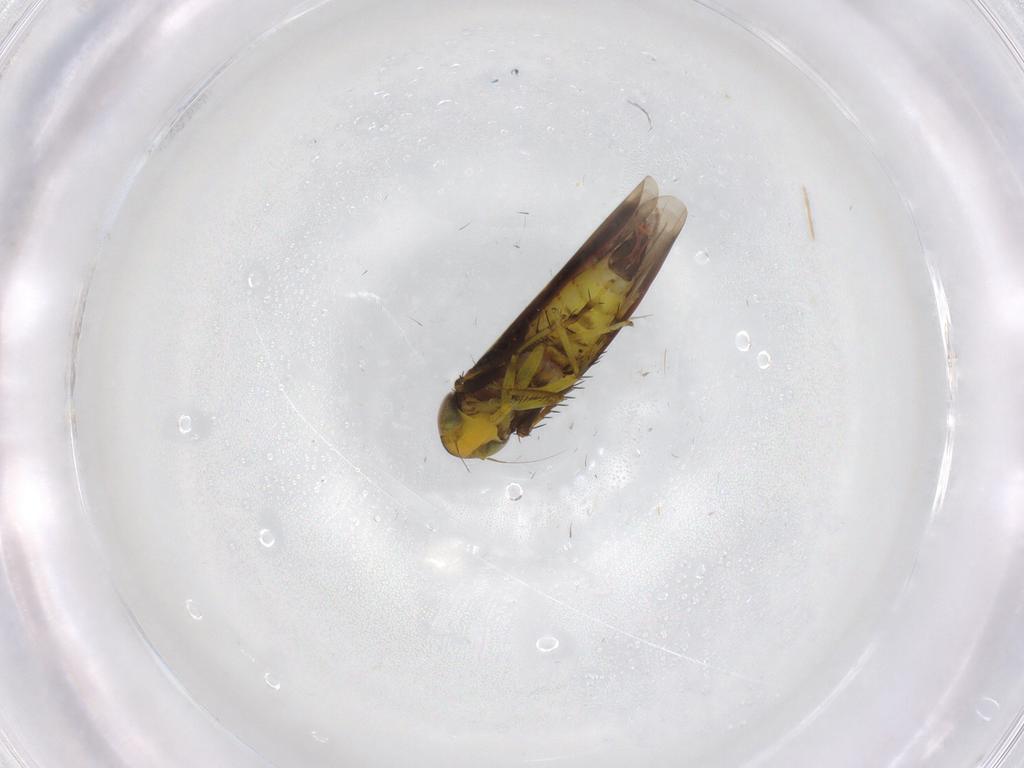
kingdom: Animalia
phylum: Arthropoda
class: Insecta
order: Hemiptera
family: Cicadellidae
